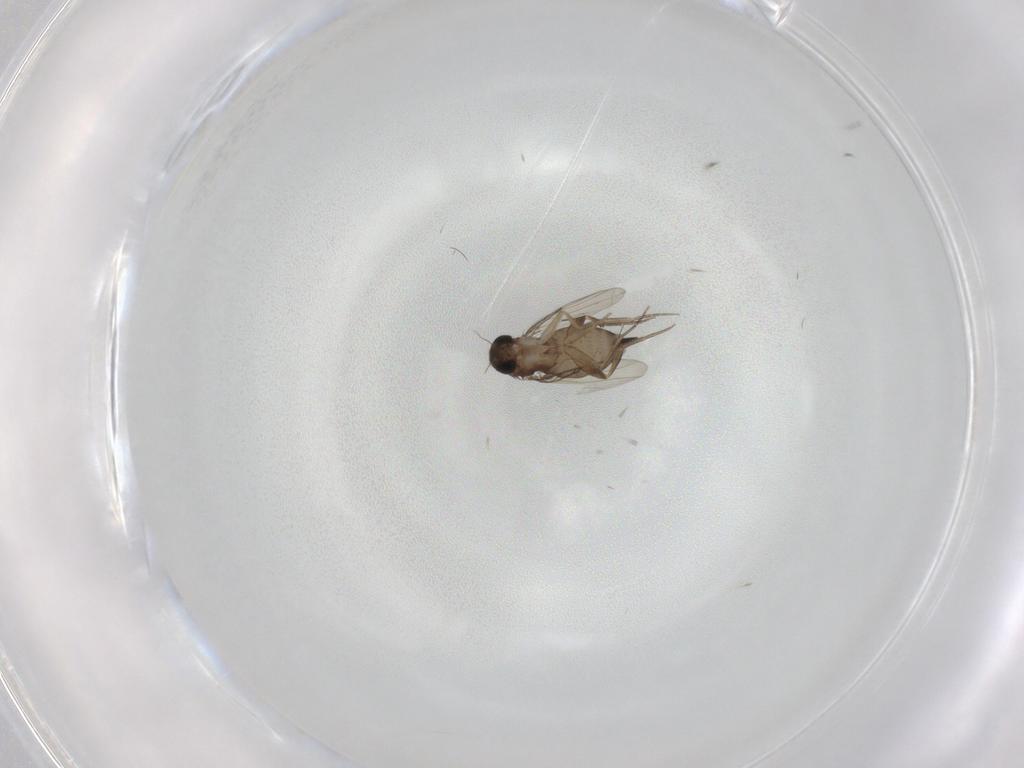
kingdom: Animalia
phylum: Arthropoda
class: Insecta
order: Diptera
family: Phoridae
